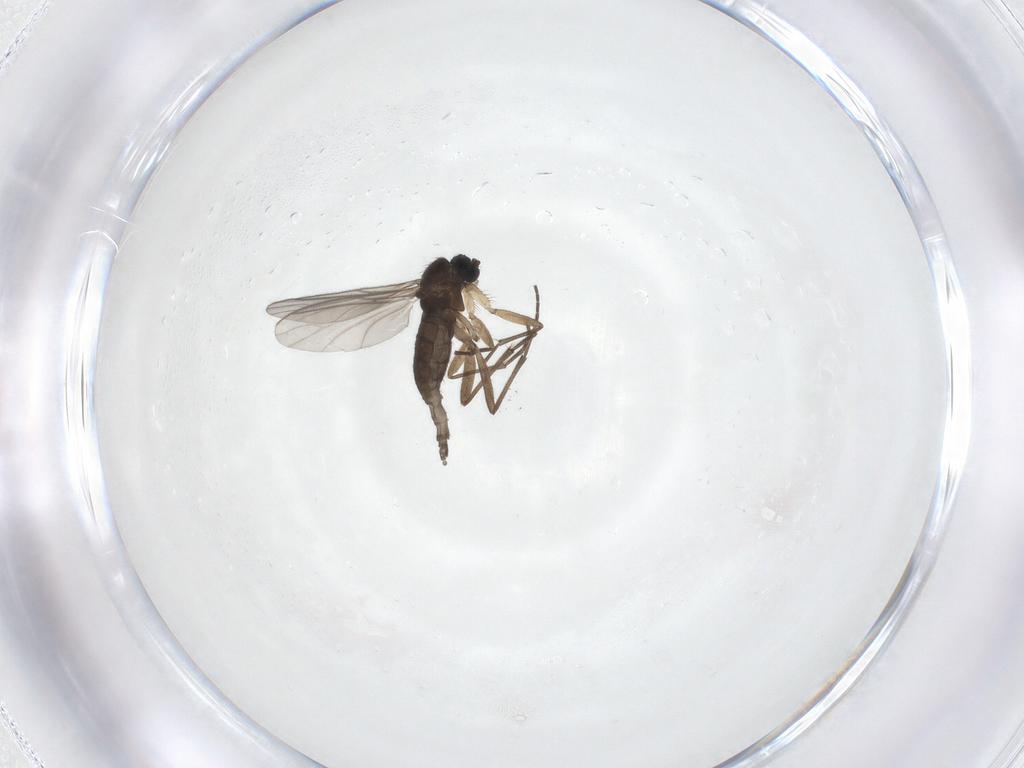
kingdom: Animalia
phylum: Arthropoda
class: Insecta
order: Diptera
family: Sciaridae
